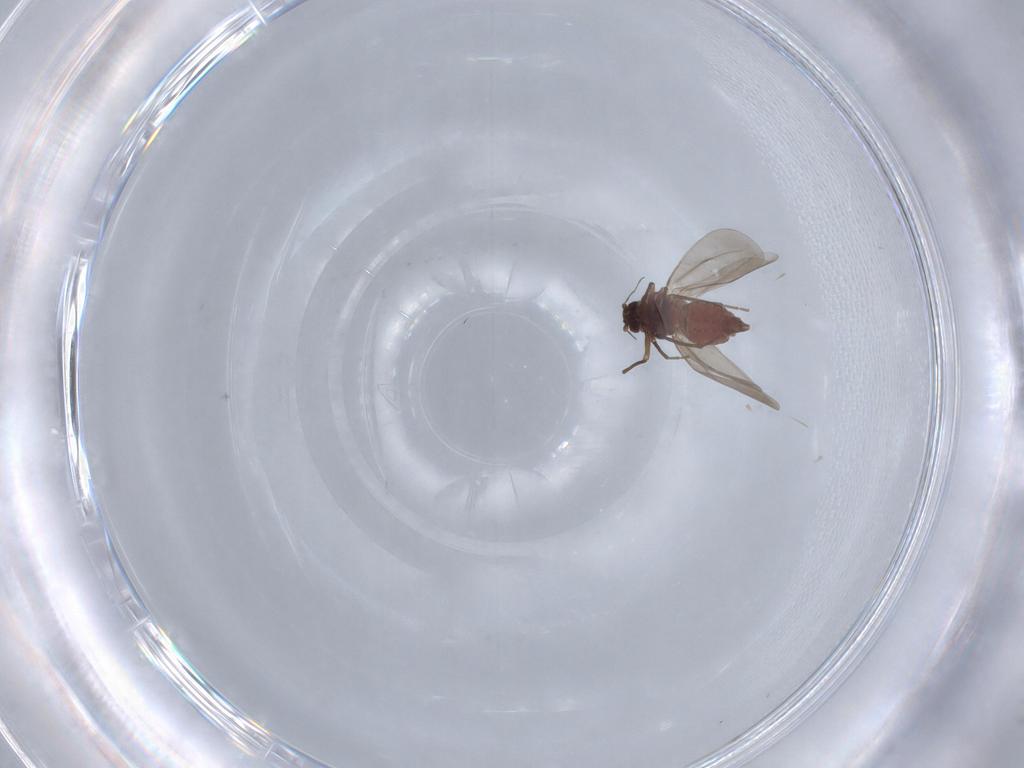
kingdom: Animalia
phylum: Arthropoda
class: Insecta
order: Hemiptera
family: Aleyrodidae
